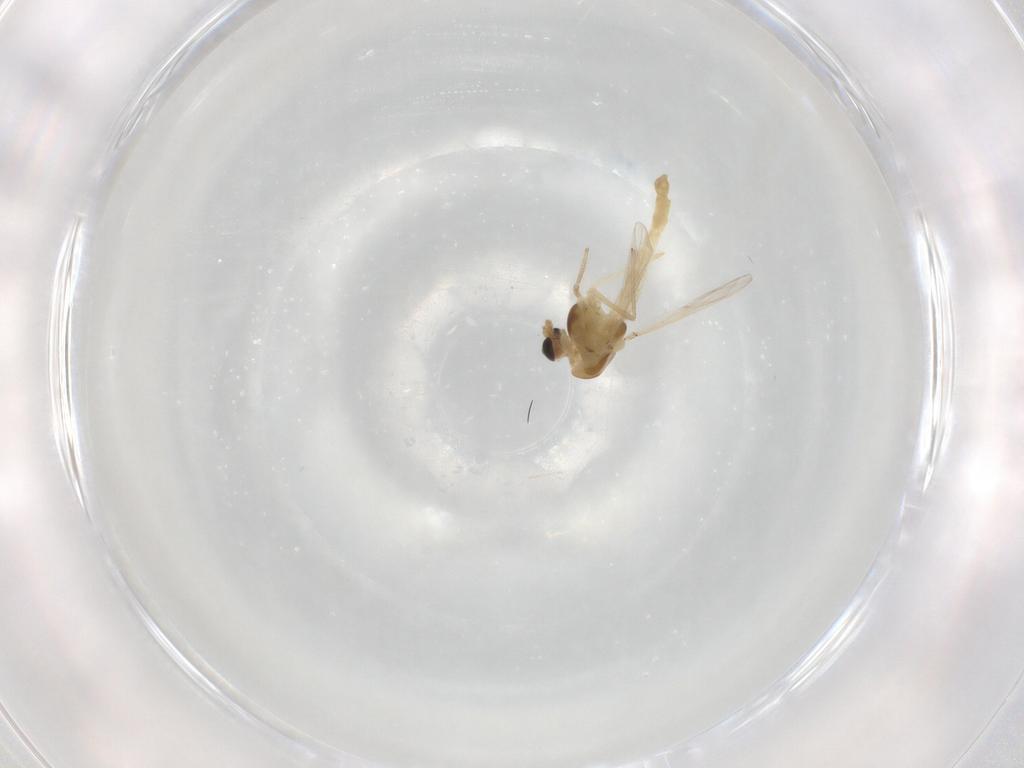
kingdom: Animalia
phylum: Arthropoda
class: Insecta
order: Diptera
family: Chironomidae
